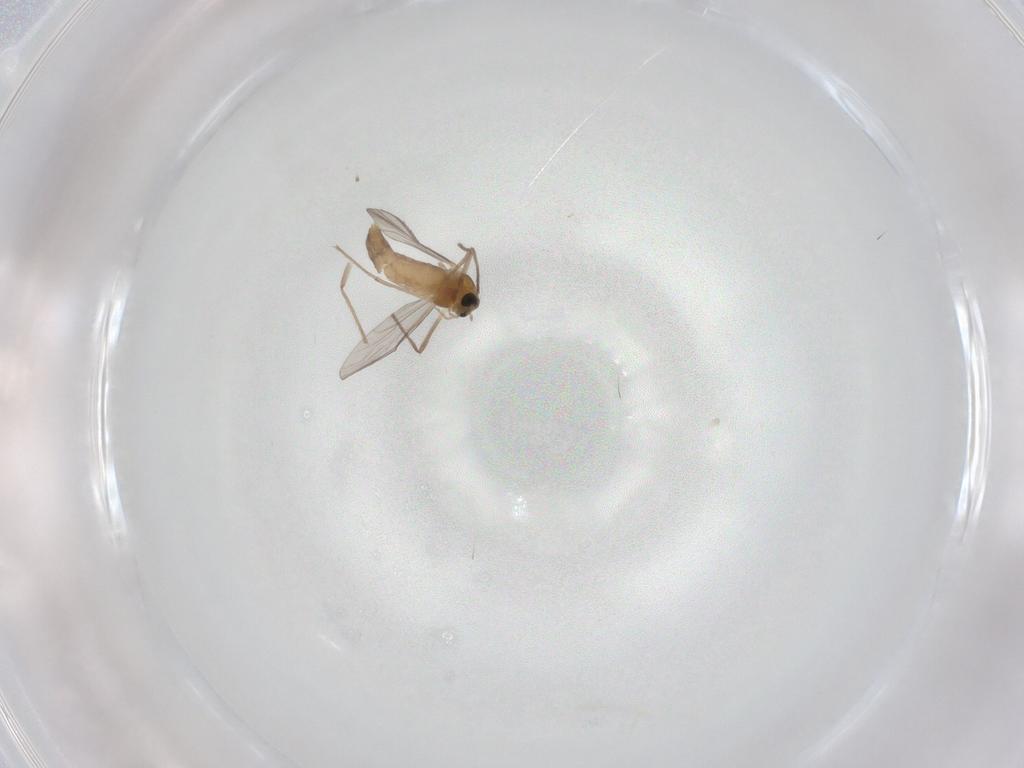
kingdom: Animalia
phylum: Arthropoda
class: Insecta
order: Diptera
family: Chironomidae
